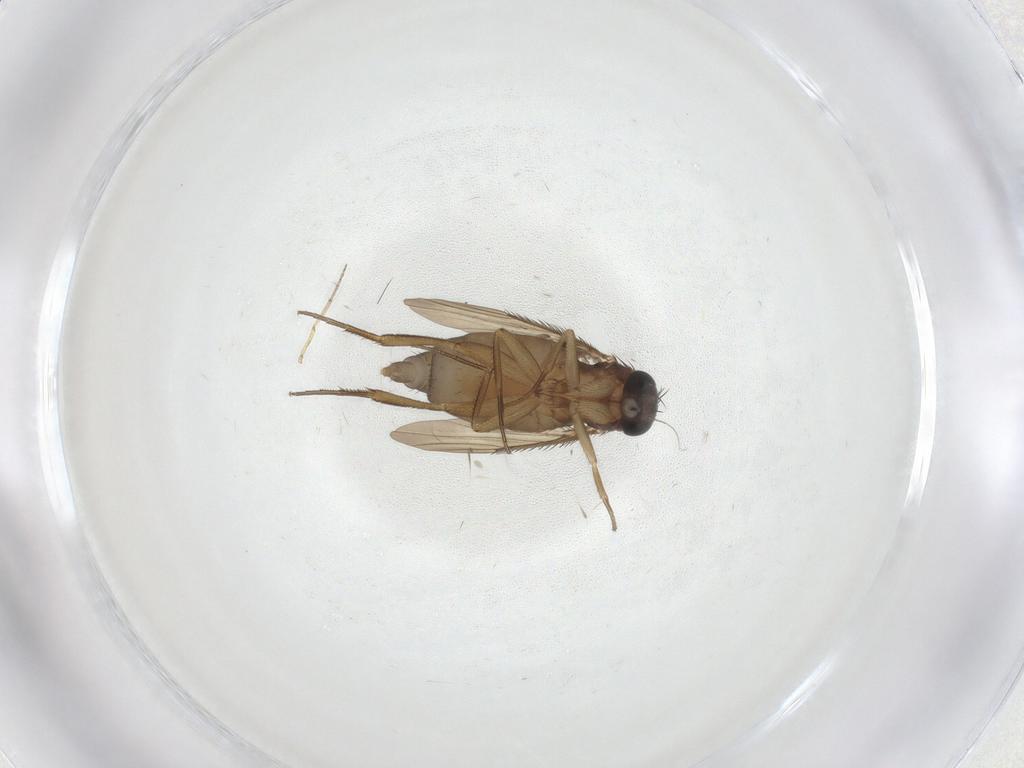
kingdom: Animalia
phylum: Arthropoda
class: Insecta
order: Diptera
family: Phoridae
